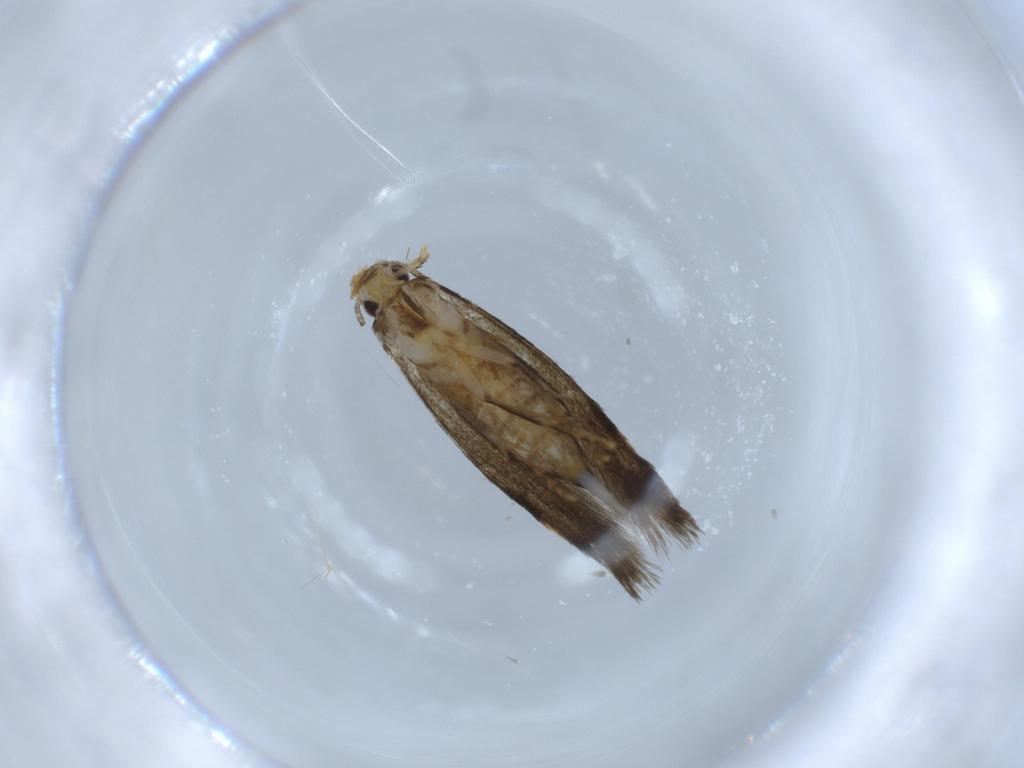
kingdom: Animalia
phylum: Arthropoda
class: Insecta
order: Lepidoptera
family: Tineidae
